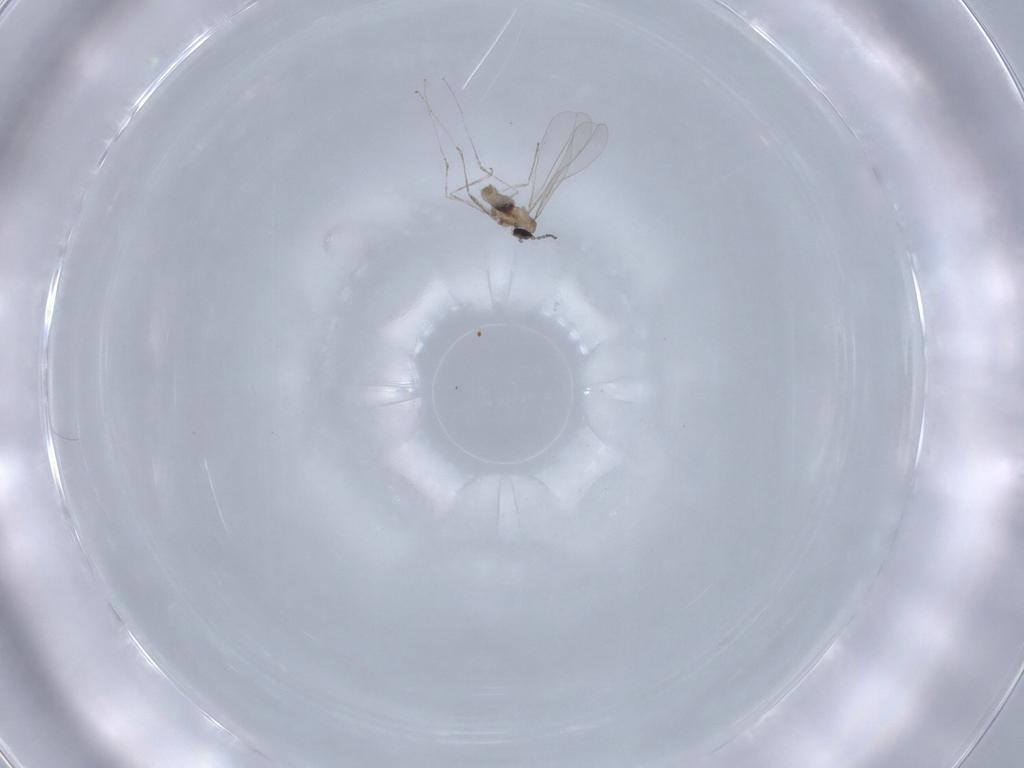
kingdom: Animalia
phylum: Arthropoda
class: Insecta
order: Diptera
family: Cecidomyiidae
